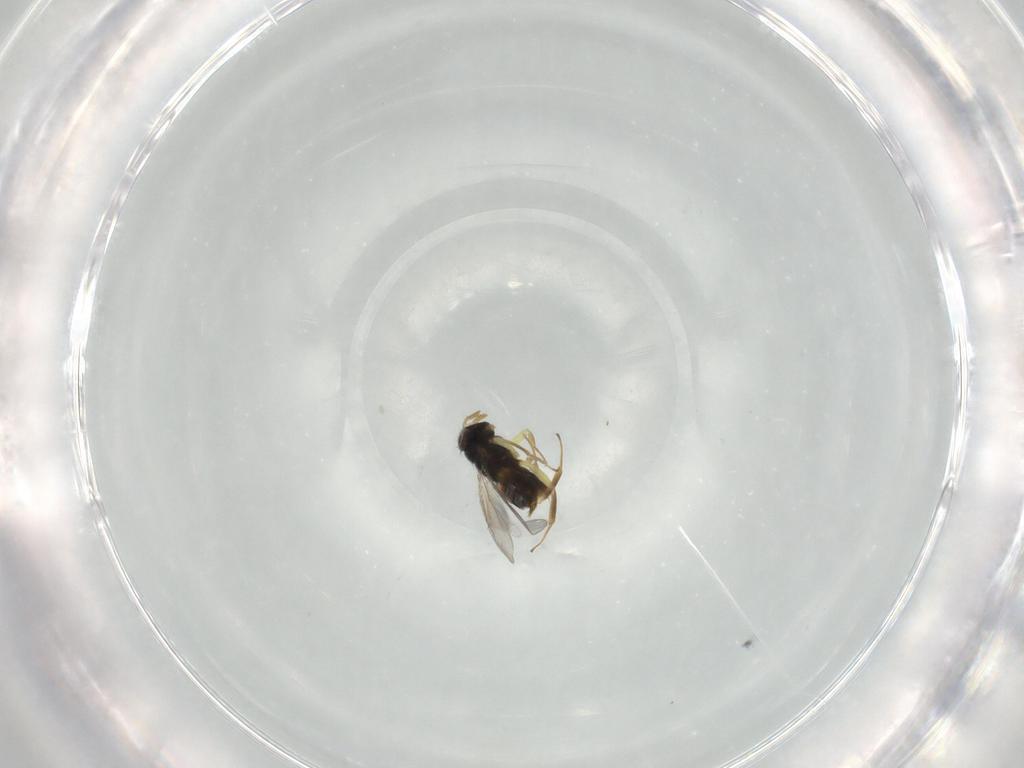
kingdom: Animalia
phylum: Arthropoda
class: Insecta
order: Hymenoptera
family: Aphelinidae
